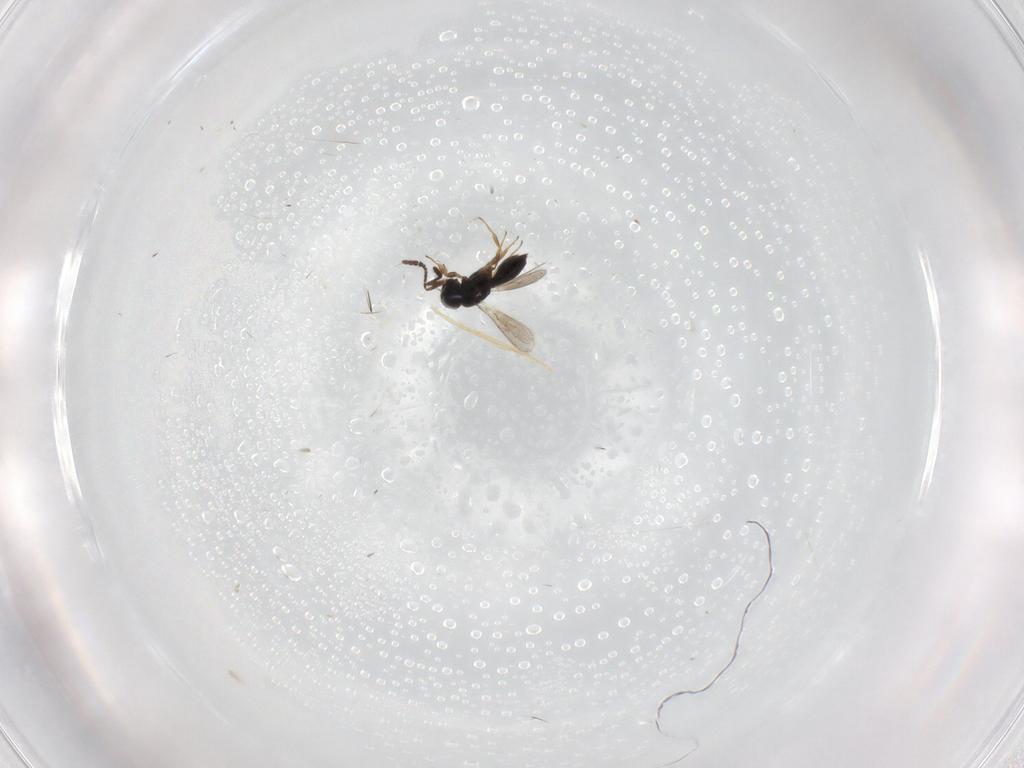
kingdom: Animalia
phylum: Arthropoda
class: Insecta
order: Hymenoptera
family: Scelionidae
